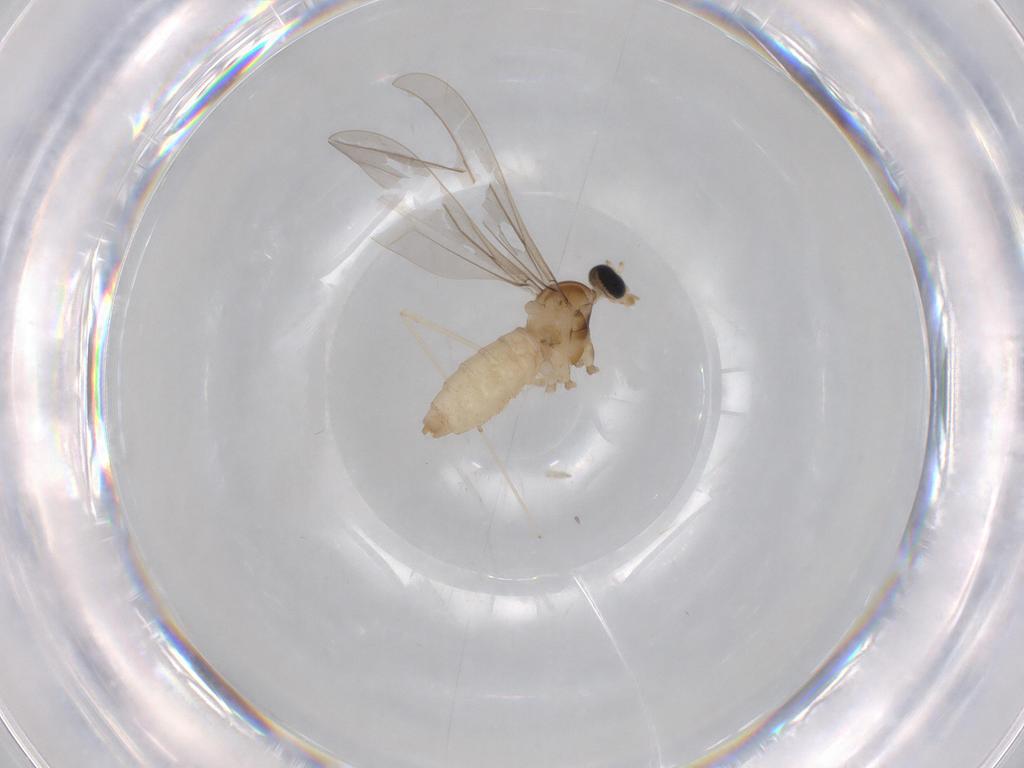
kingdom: Animalia
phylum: Arthropoda
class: Insecta
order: Diptera
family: Cecidomyiidae
